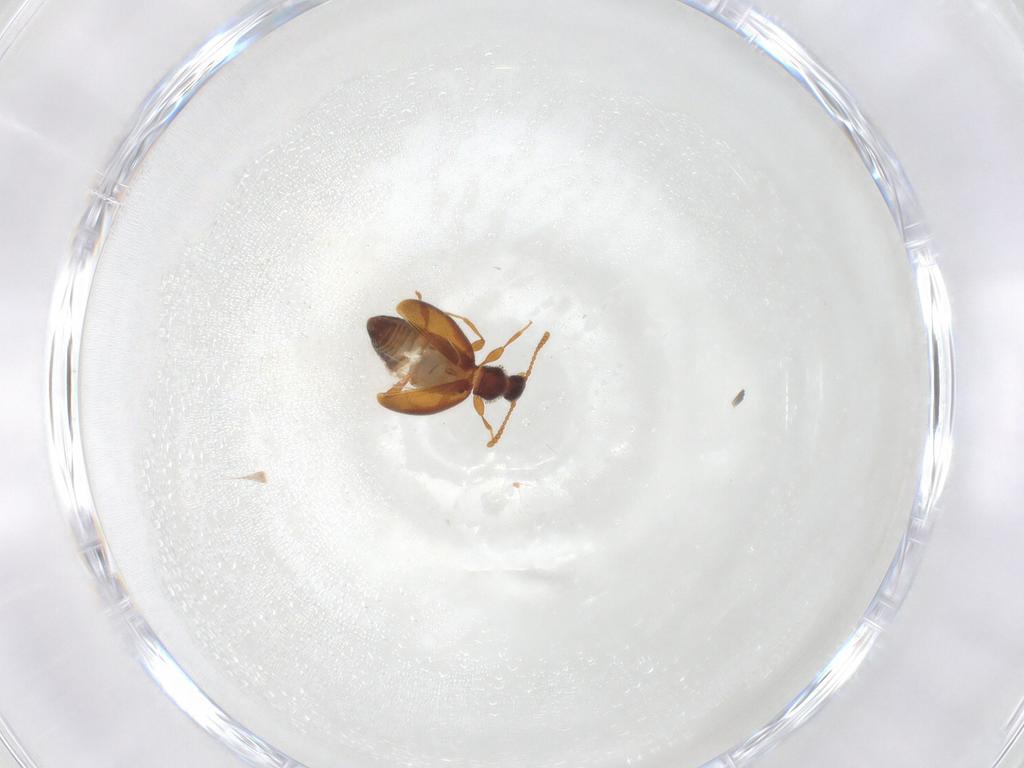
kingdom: Animalia
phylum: Arthropoda
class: Insecta
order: Coleoptera
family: Staphylinidae
